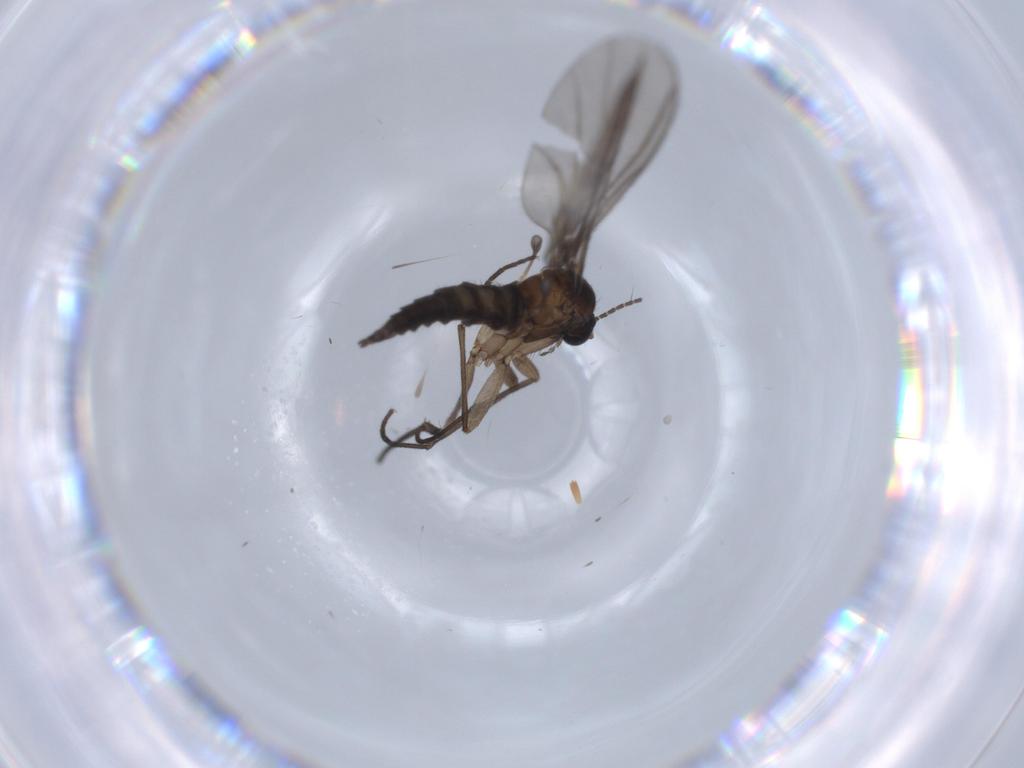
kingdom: Animalia
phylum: Arthropoda
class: Insecta
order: Diptera
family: Sciaridae
